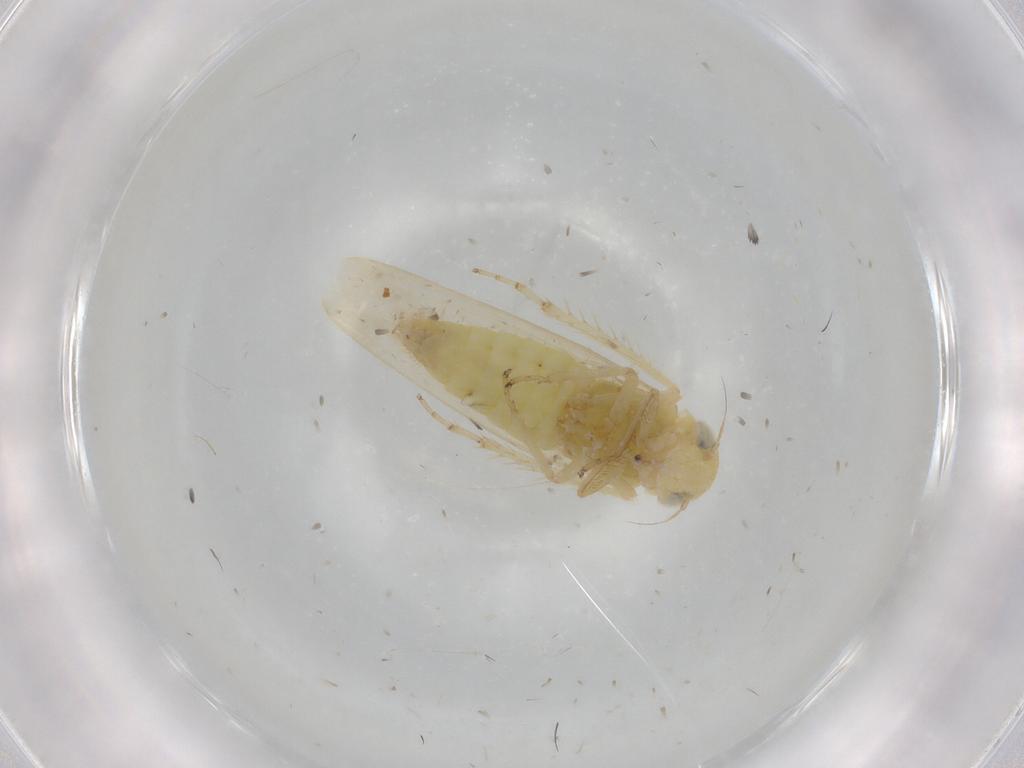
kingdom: Animalia
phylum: Arthropoda
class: Insecta
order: Hemiptera
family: Cicadellidae
